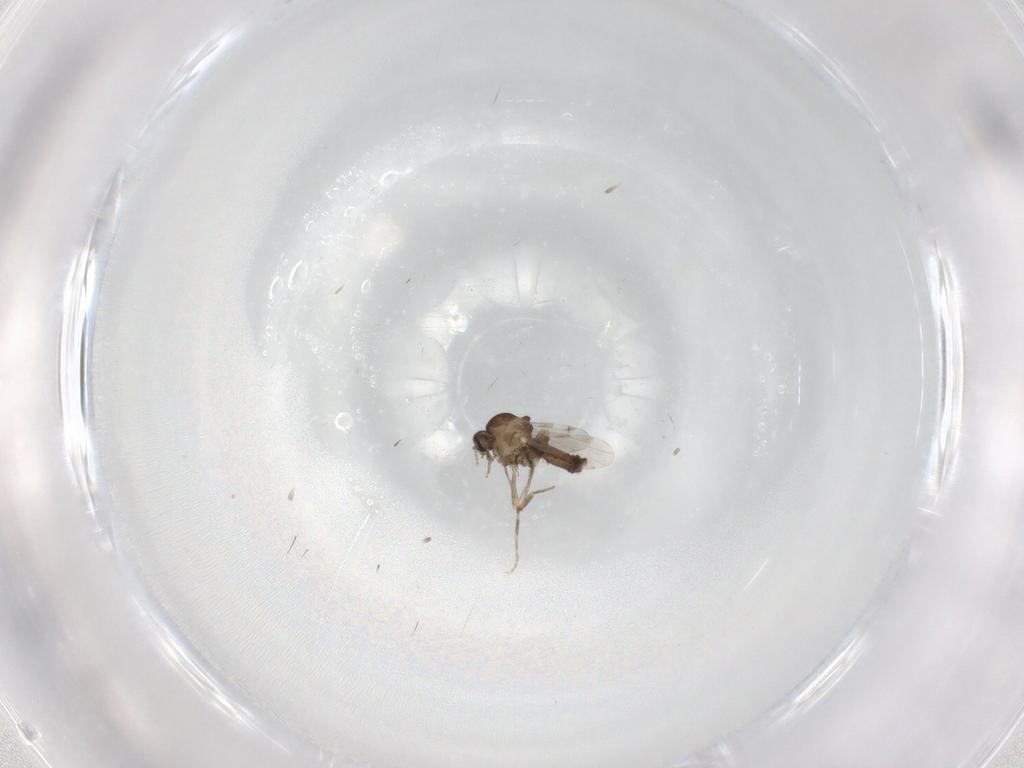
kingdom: Animalia
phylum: Arthropoda
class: Insecta
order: Diptera
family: Ceratopogonidae
